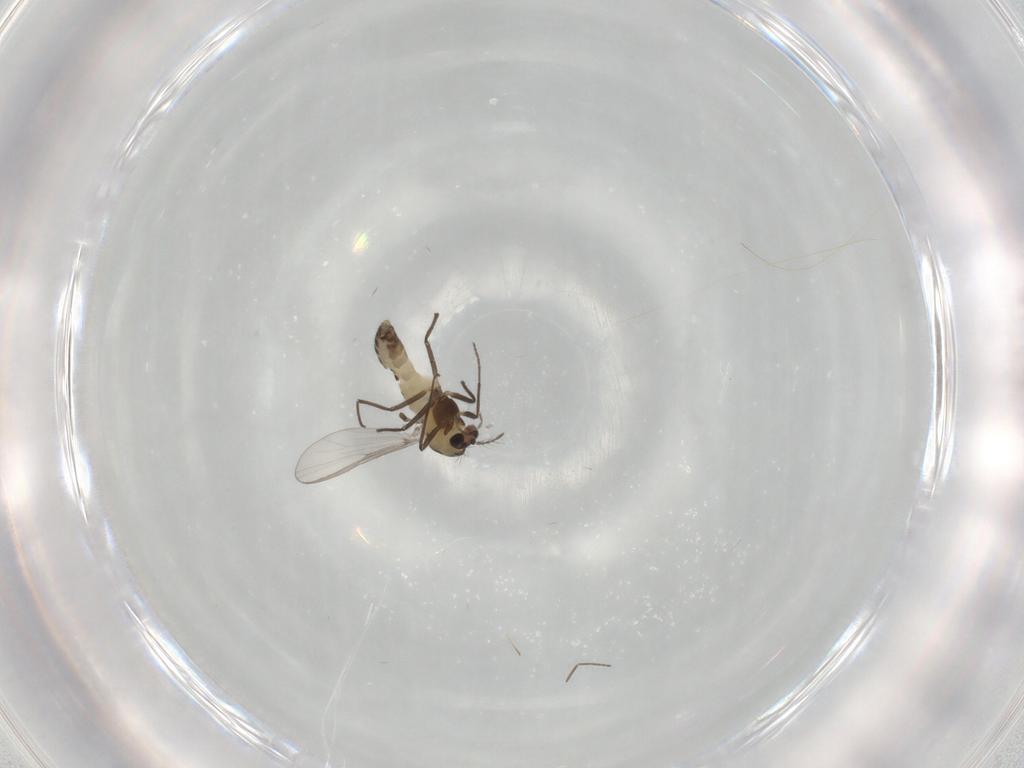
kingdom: Animalia
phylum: Arthropoda
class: Insecta
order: Diptera
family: Chironomidae
